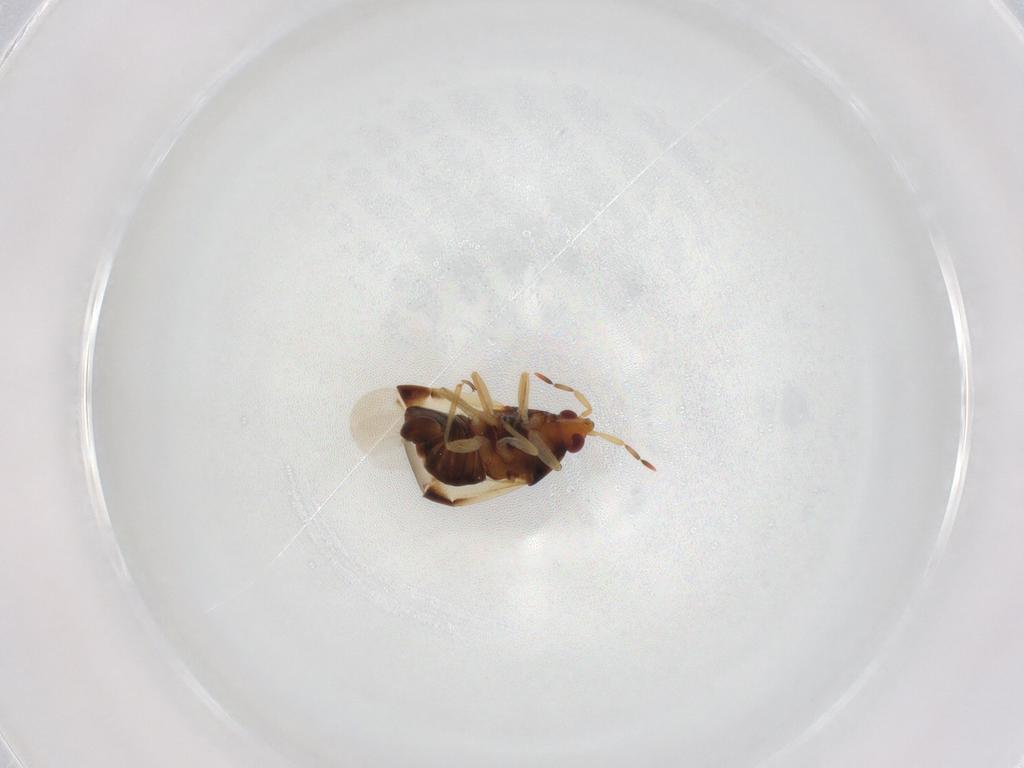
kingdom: Animalia
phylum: Arthropoda
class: Insecta
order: Hemiptera
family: Anthocoridae
